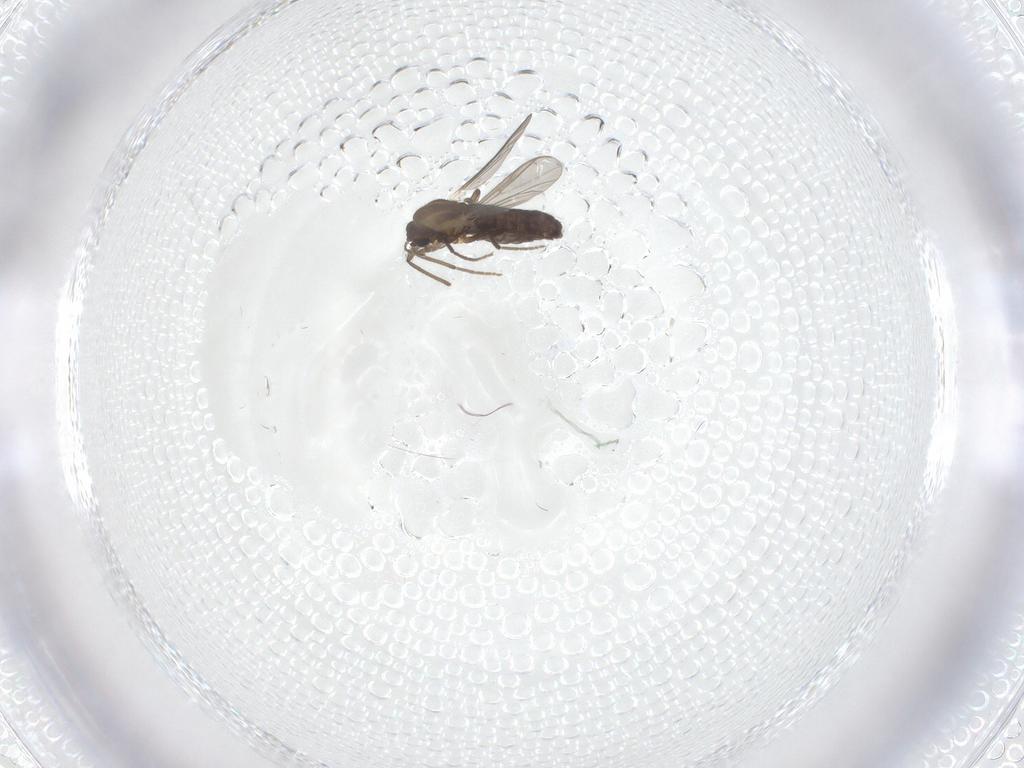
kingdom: Animalia
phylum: Arthropoda
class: Insecta
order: Diptera
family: Chironomidae
